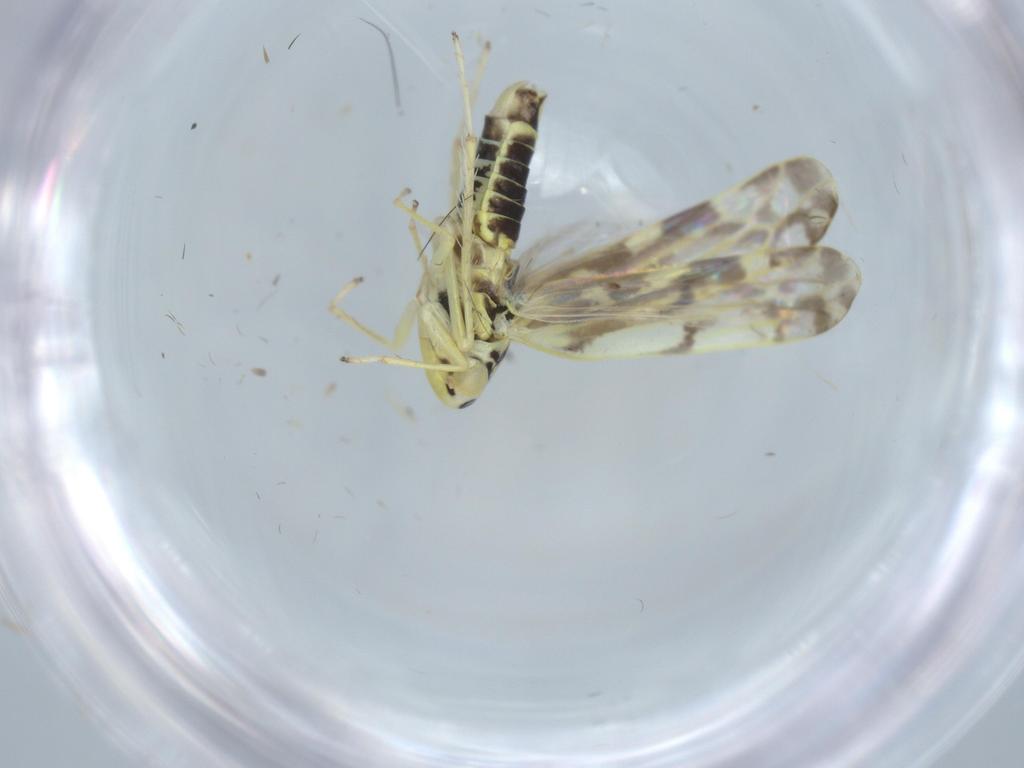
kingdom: Animalia
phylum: Arthropoda
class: Insecta
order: Hemiptera
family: Cicadellidae
